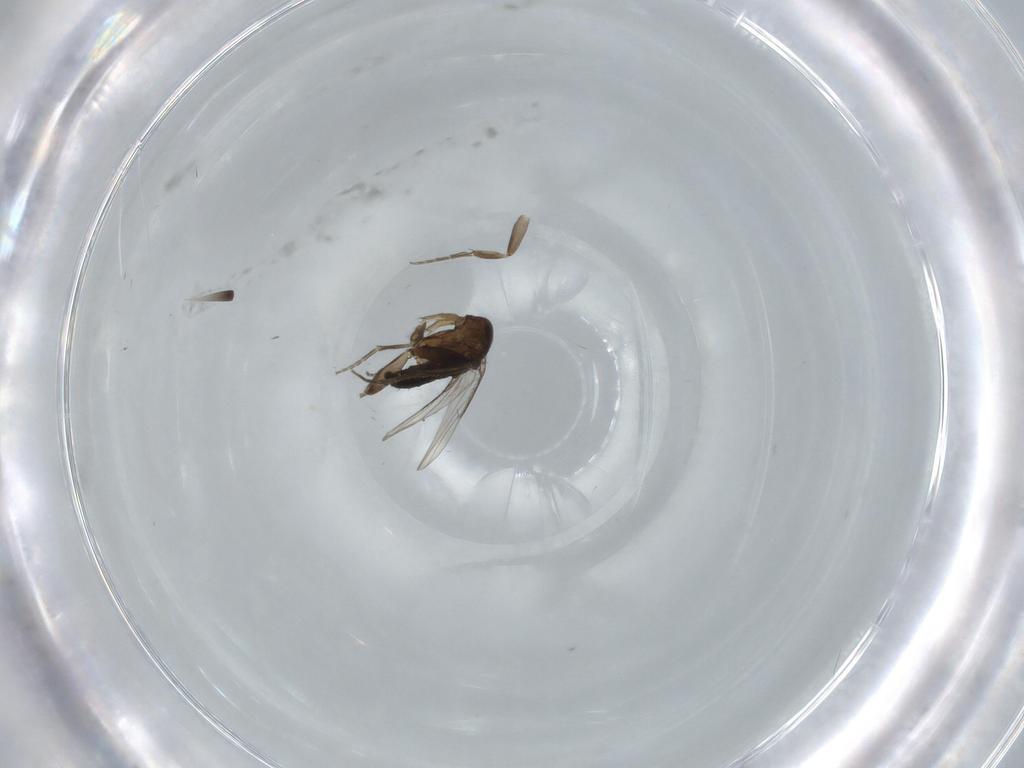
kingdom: Animalia
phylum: Arthropoda
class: Insecta
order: Diptera
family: Phoridae
